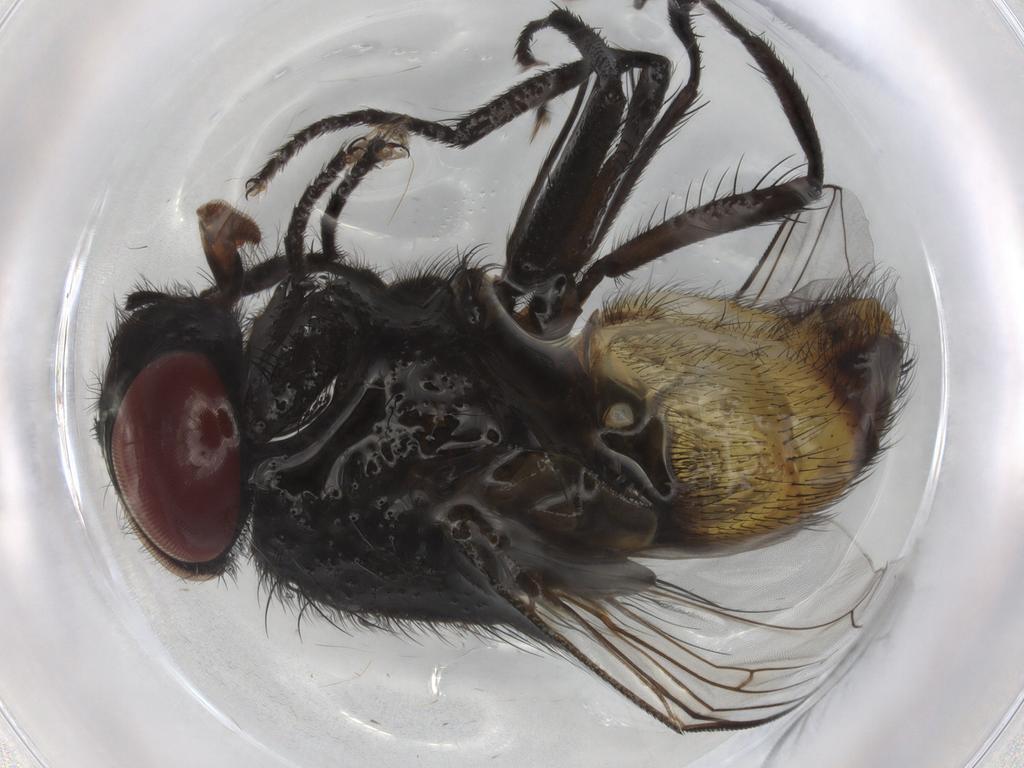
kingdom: Animalia
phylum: Arthropoda
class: Insecta
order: Diptera
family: Muscidae
